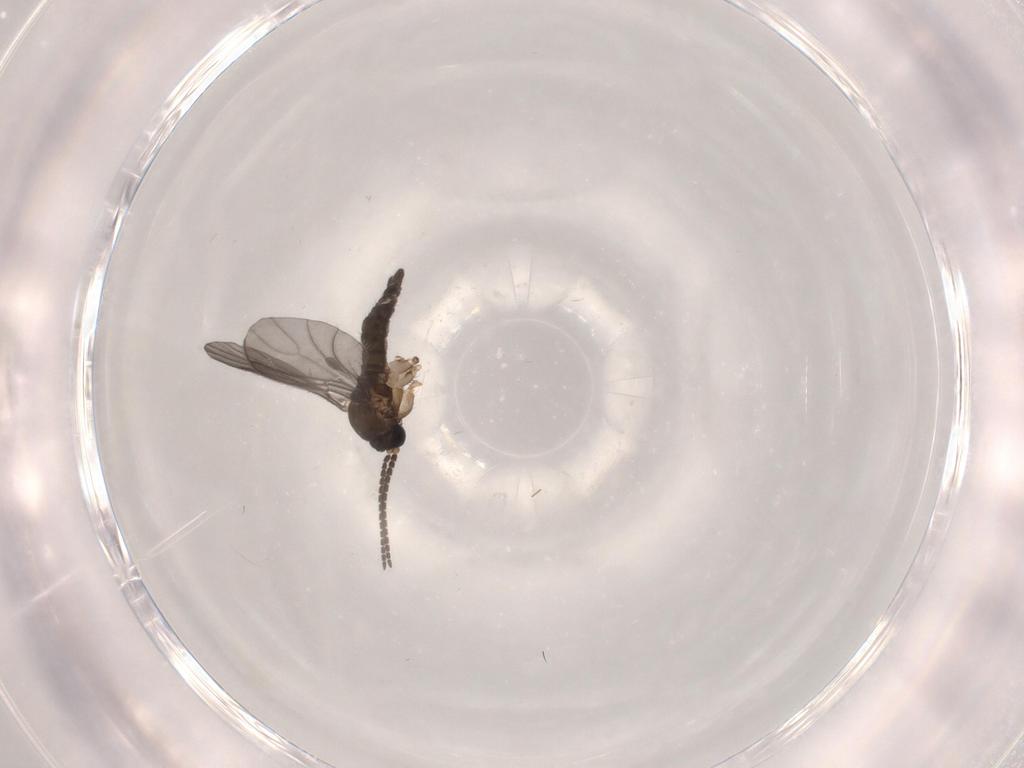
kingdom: Animalia
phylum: Arthropoda
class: Insecta
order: Diptera
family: Sciaridae
